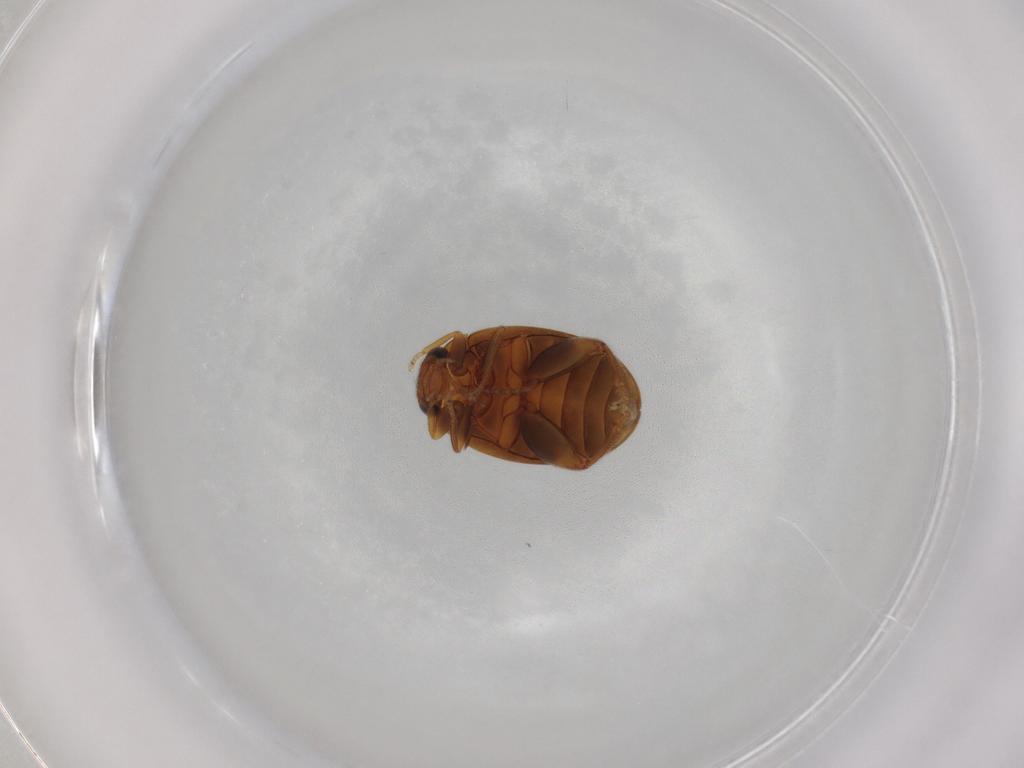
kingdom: Animalia
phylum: Arthropoda
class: Insecta
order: Coleoptera
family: Scirtidae
